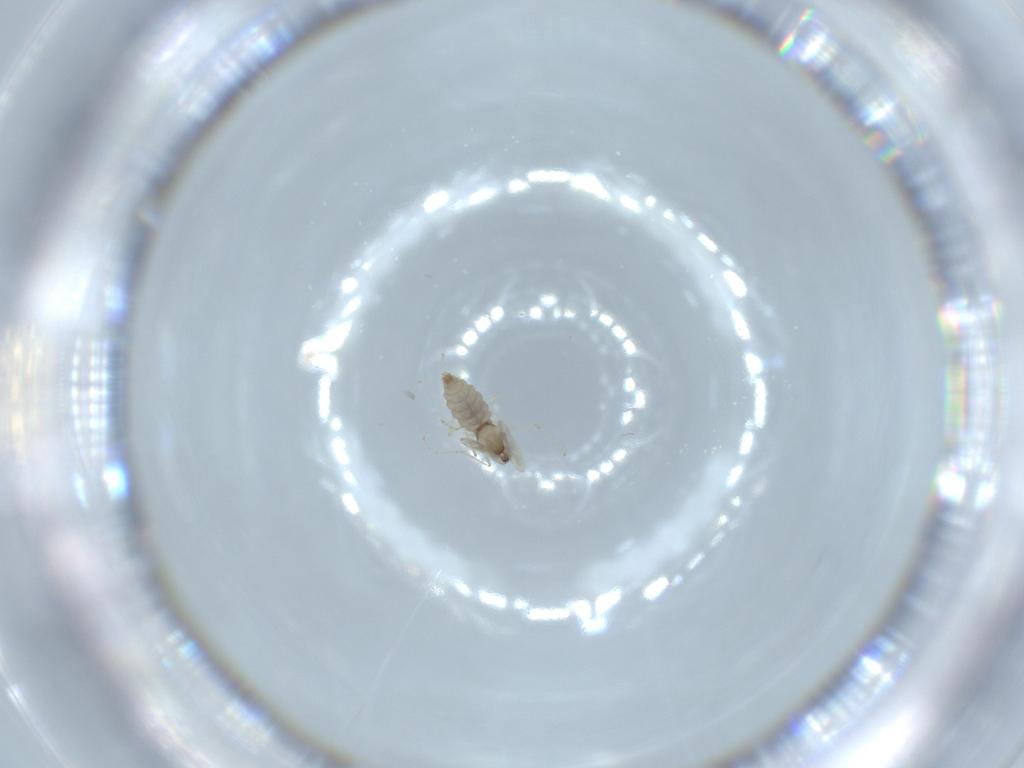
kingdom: Animalia
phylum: Arthropoda
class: Insecta
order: Diptera
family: Cecidomyiidae
